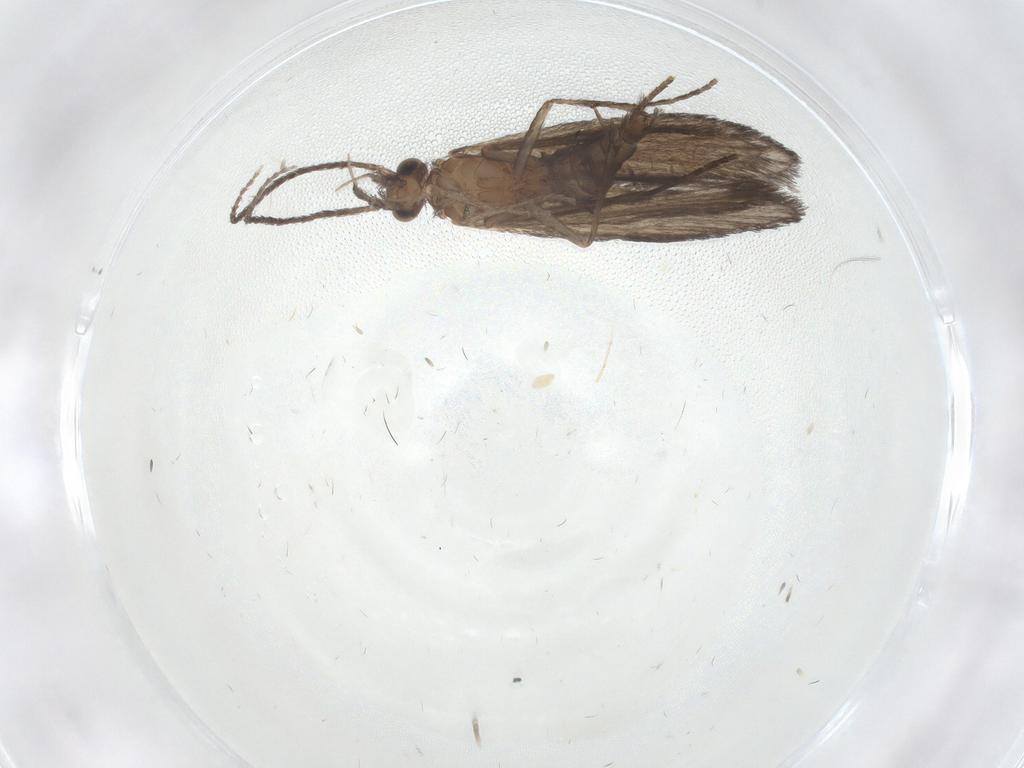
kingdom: Animalia
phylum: Arthropoda
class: Insecta
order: Trichoptera
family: Xiphocentronidae
